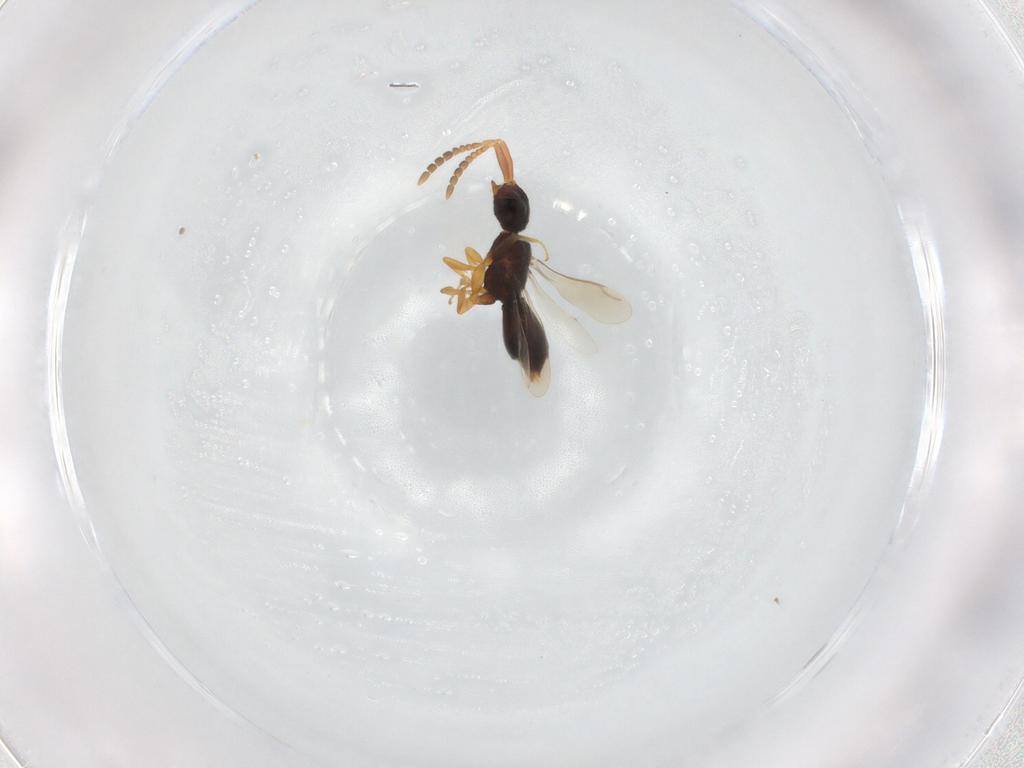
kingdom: Animalia
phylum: Arthropoda
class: Insecta
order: Hymenoptera
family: Ceraphronidae
